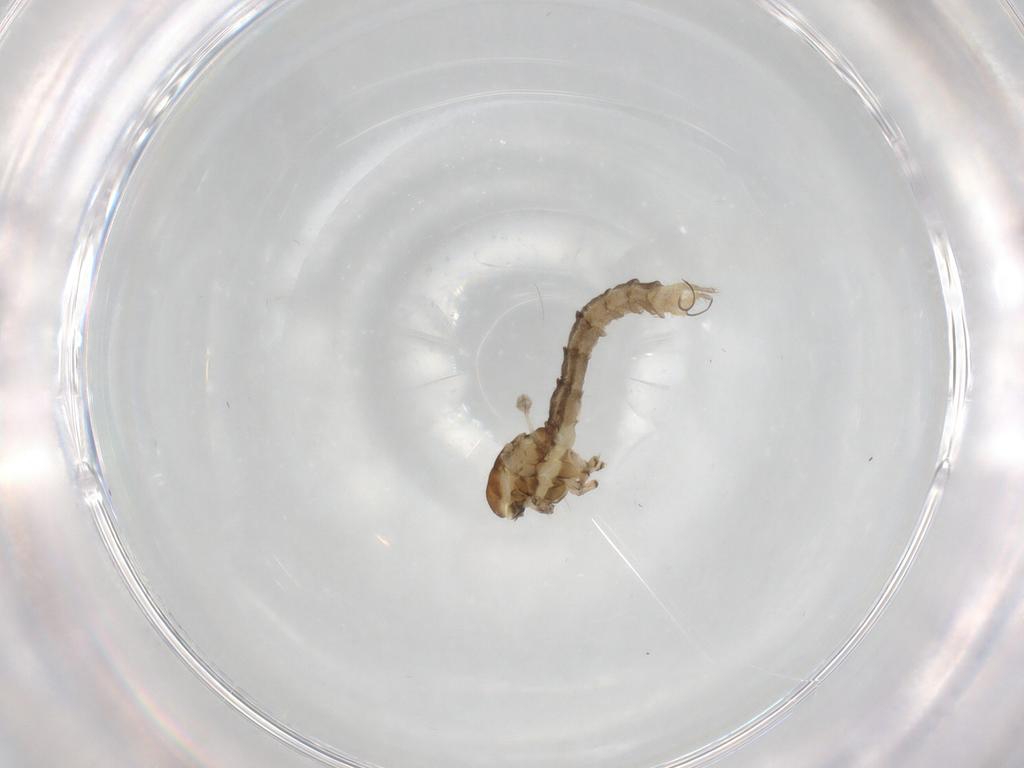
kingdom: Animalia
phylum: Arthropoda
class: Insecta
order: Diptera
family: Limoniidae
